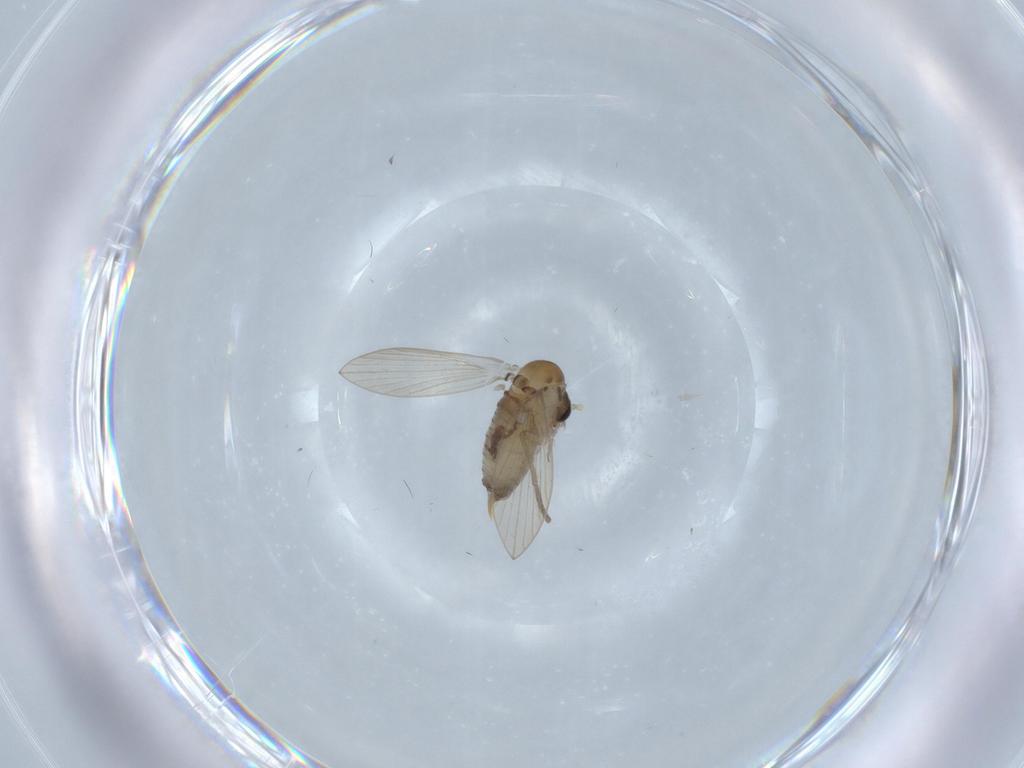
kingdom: Animalia
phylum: Arthropoda
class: Insecta
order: Diptera
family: Psychodidae
